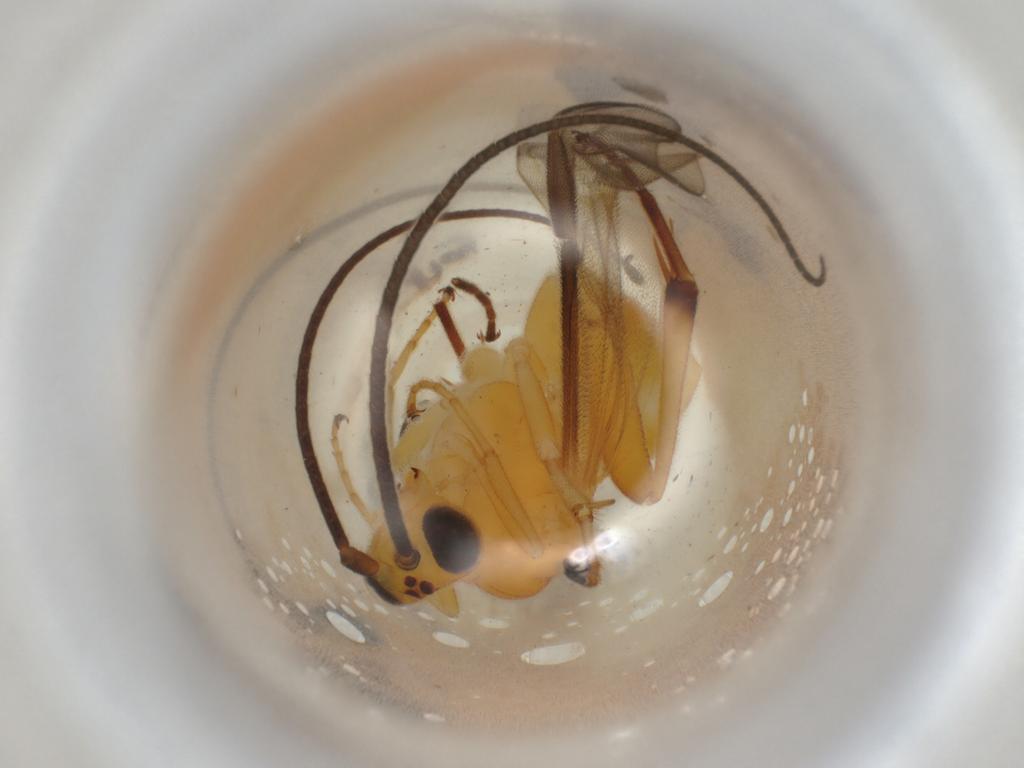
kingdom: Animalia
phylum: Arthropoda
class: Insecta
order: Hymenoptera
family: Braconidae
